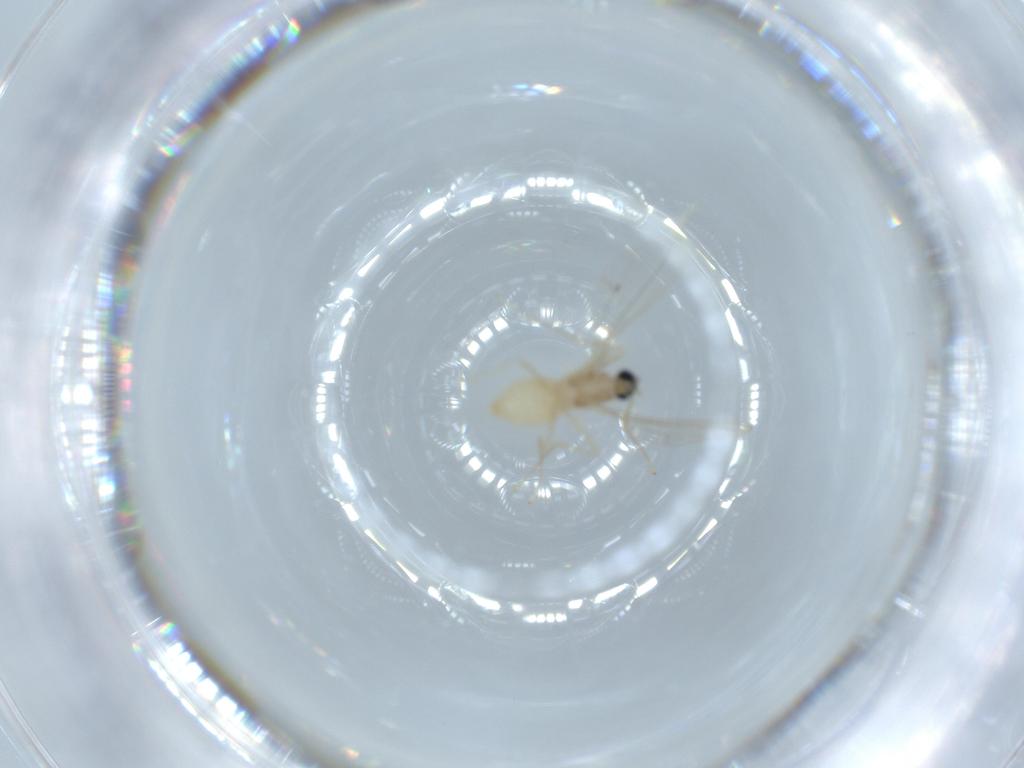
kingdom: Animalia
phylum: Arthropoda
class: Insecta
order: Diptera
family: Cecidomyiidae
